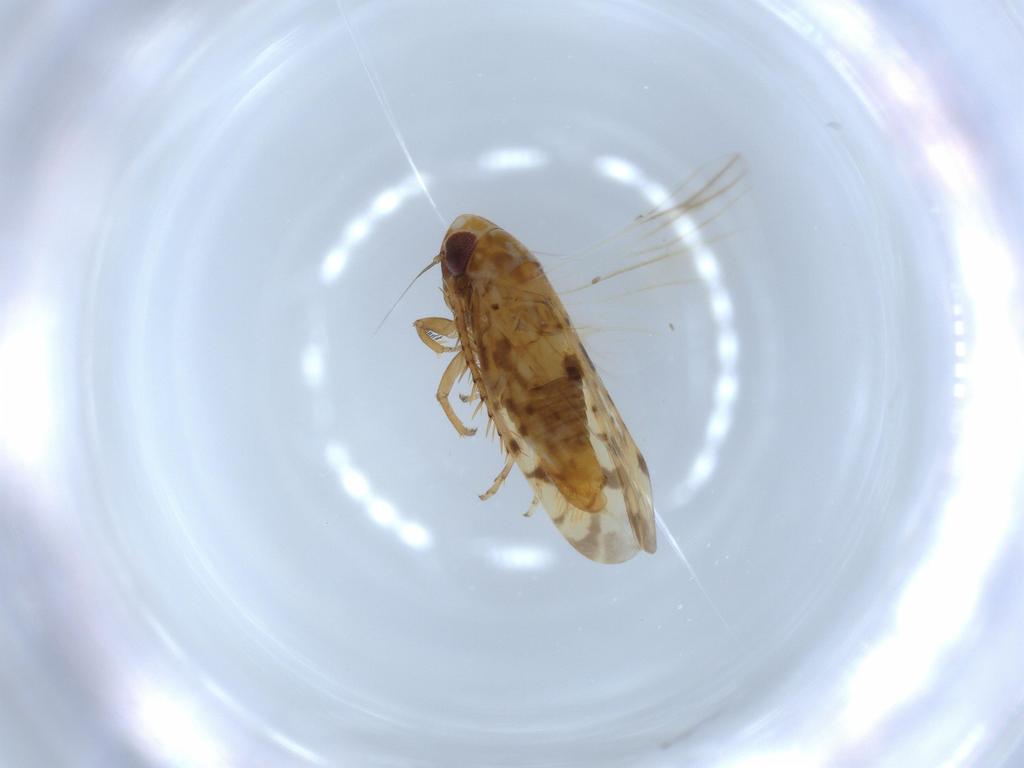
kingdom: Animalia
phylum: Arthropoda
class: Insecta
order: Hemiptera
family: Cicadellidae
